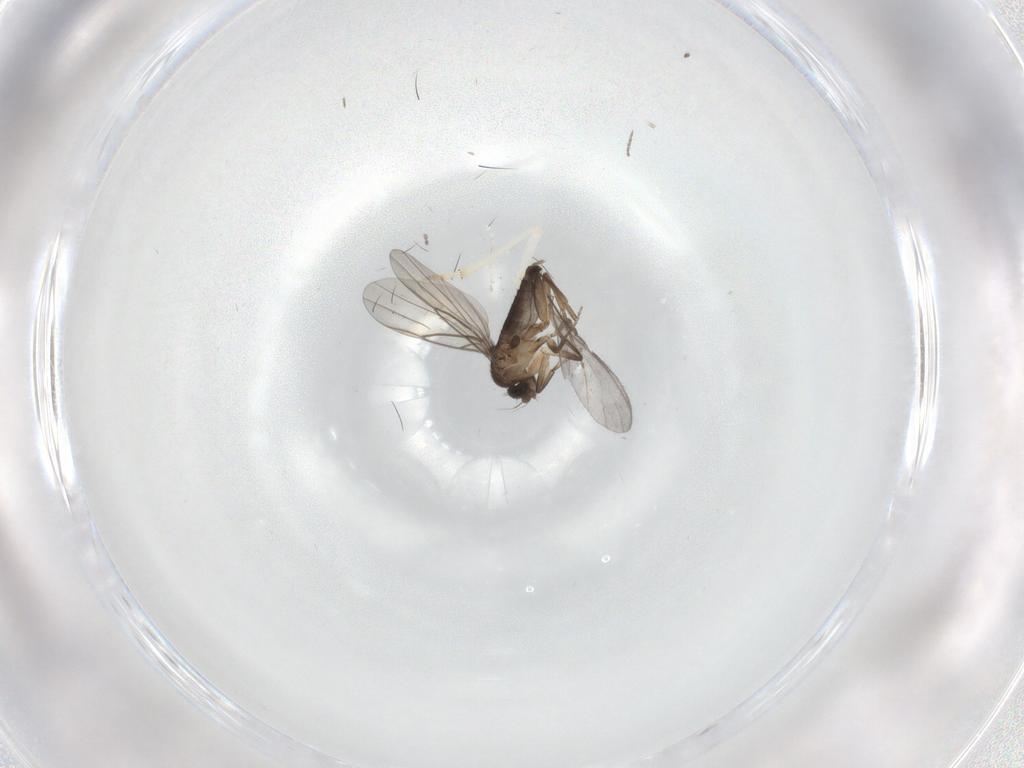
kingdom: Animalia
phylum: Arthropoda
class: Insecta
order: Diptera
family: Phoridae
